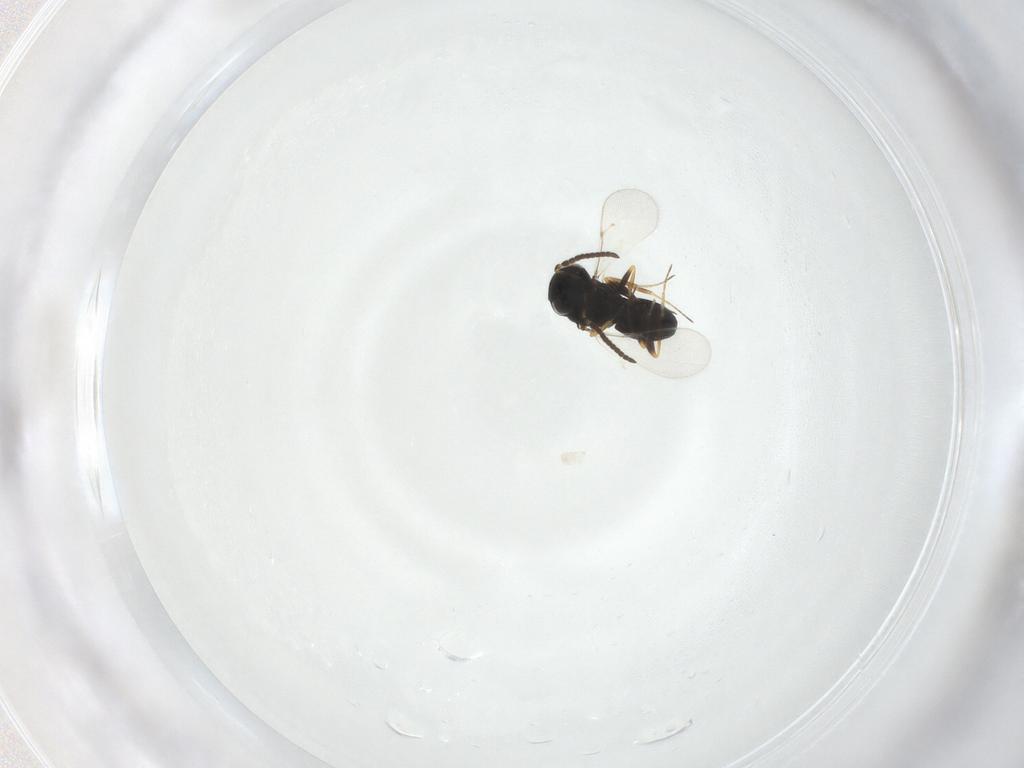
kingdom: Animalia
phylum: Arthropoda
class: Insecta
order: Hymenoptera
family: Scelionidae
